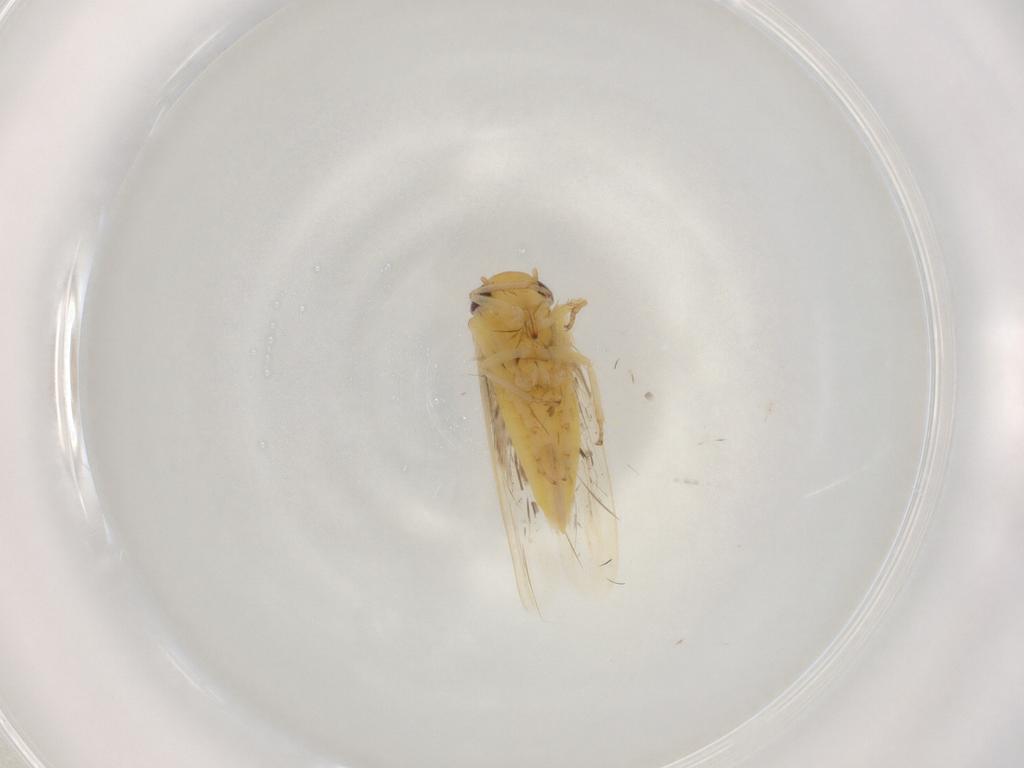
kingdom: Animalia
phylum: Arthropoda
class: Insecta
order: Hemiptera
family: Cicadellidae
